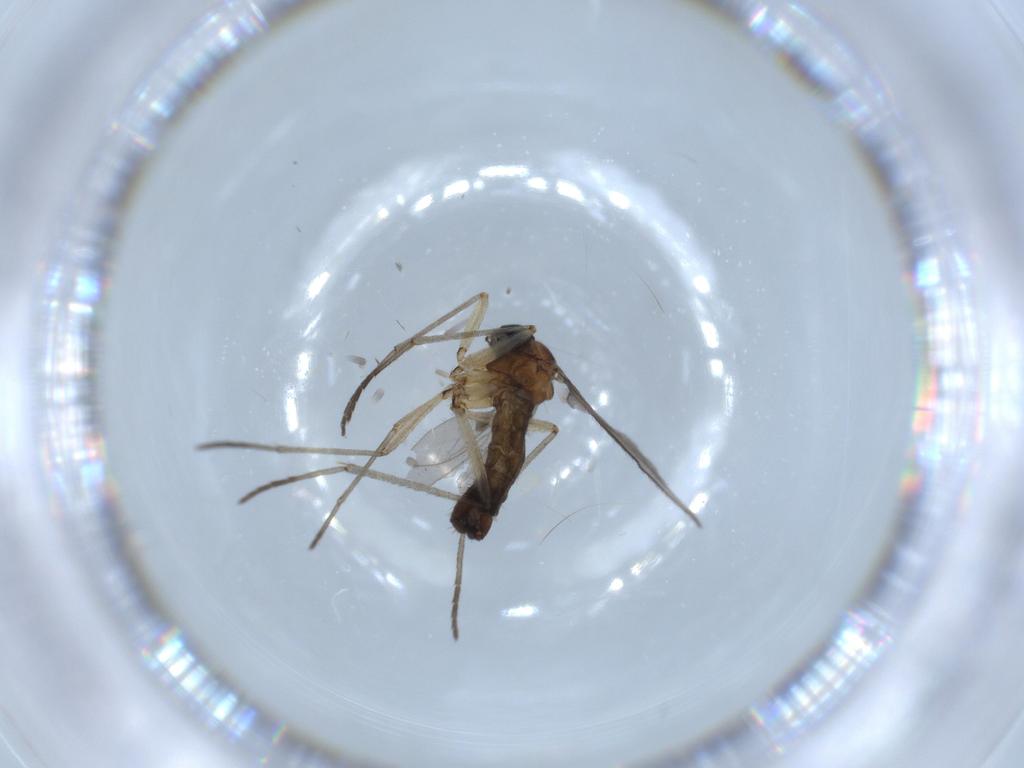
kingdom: Animalia
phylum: Arthropoda
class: Insecta
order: Diptera
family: Sciaridae
